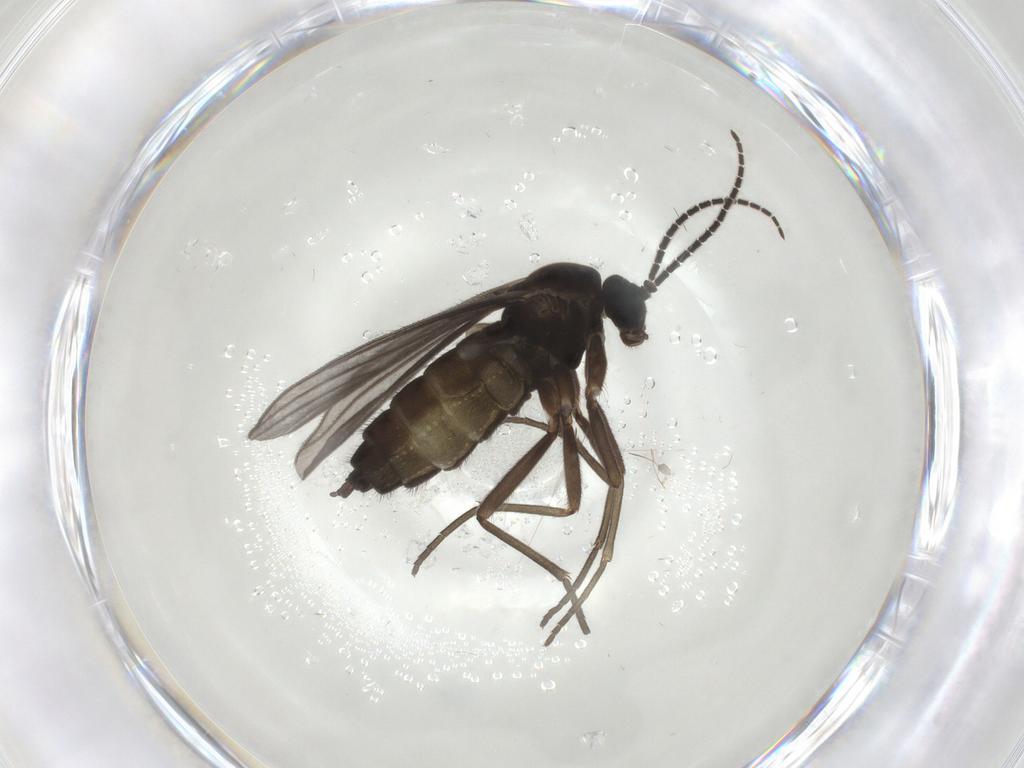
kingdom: Animalia
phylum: Arthropoda
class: Insecta
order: Diptera
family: Sciaridae
